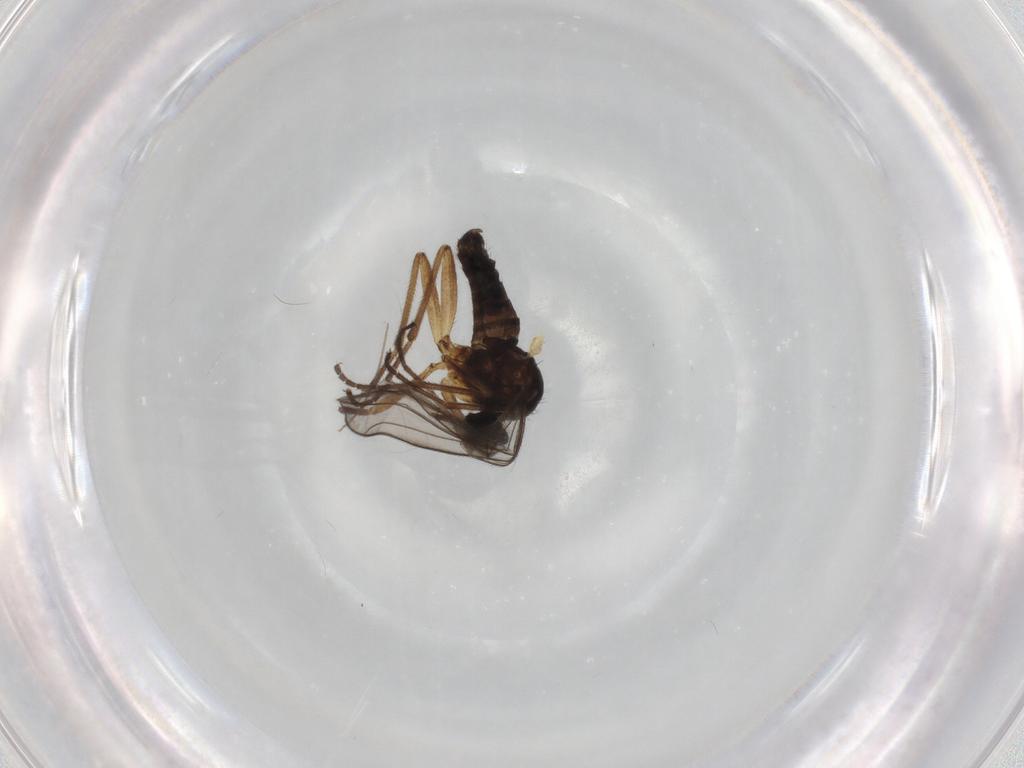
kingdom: Animalia
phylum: Arthropoda
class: Insecta
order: Diptera
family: Empididae
